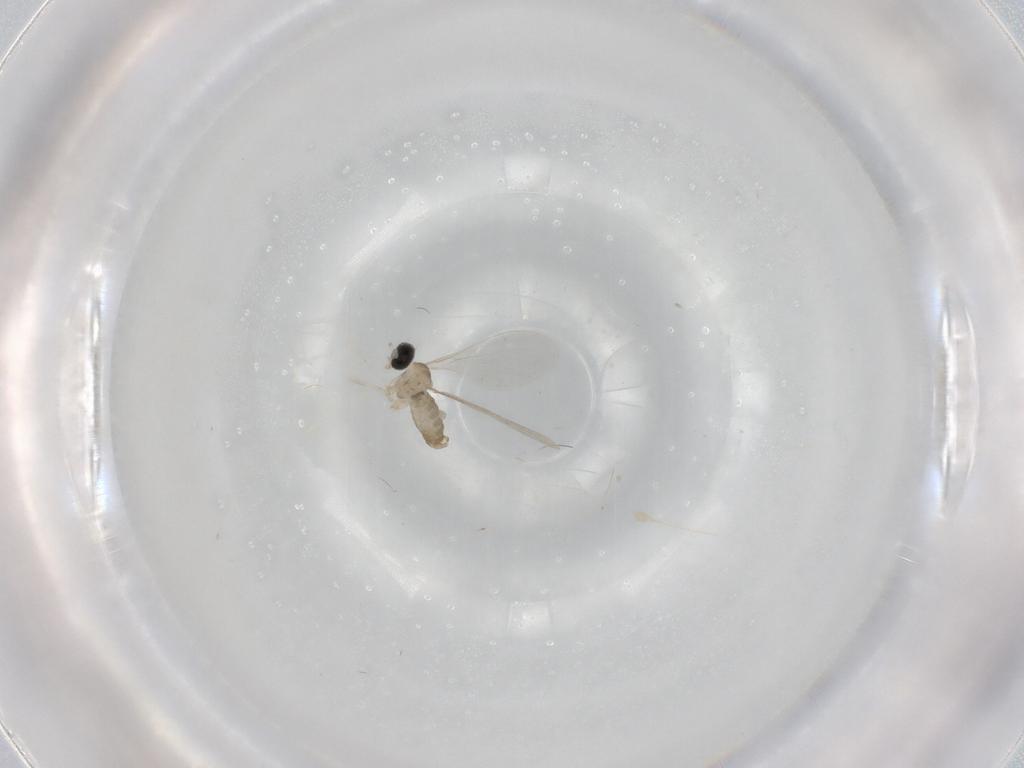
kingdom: Animalia
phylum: Arthropoda
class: Insecta
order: Diptera
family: Cecidomyiidae
